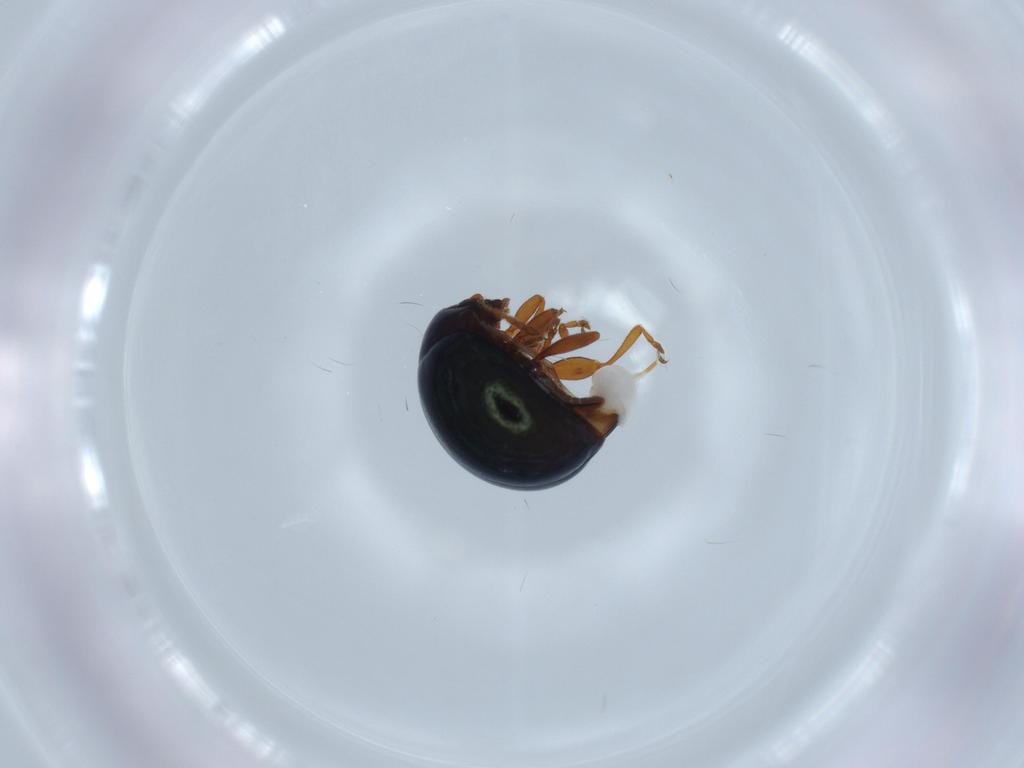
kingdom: Animalia
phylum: Arthropoda
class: Insecta
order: Coleoptera
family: Chrysomelidae
